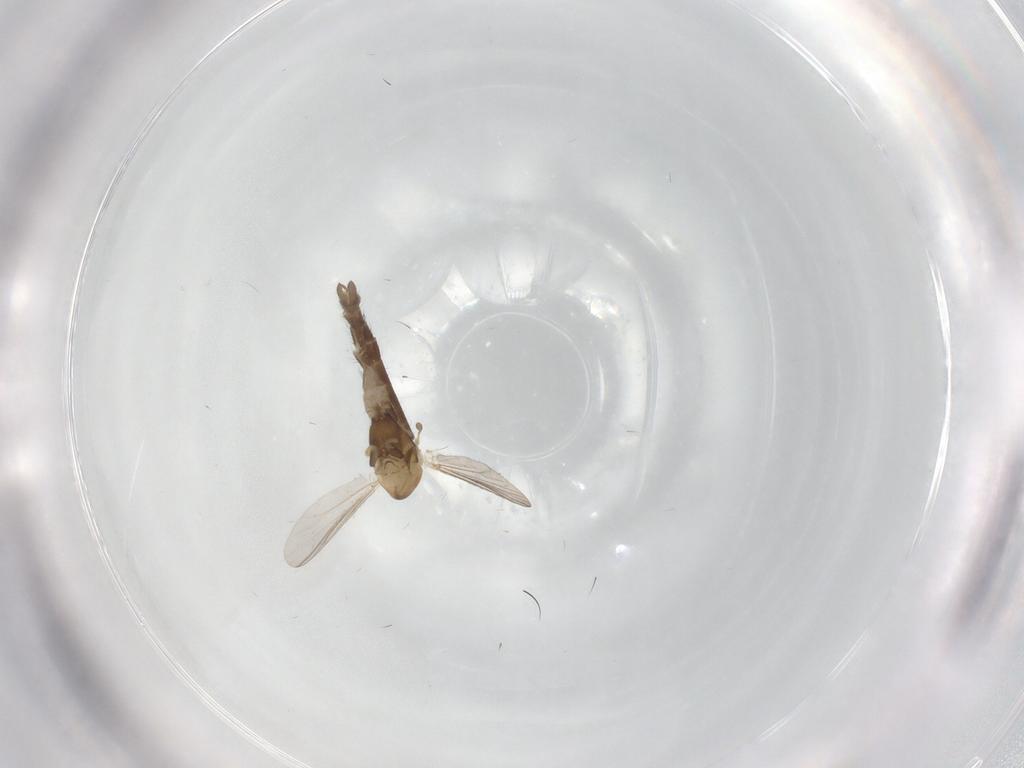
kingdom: Animalia
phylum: Arthropoda
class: Insecta
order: Diptera
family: Chironomidae
